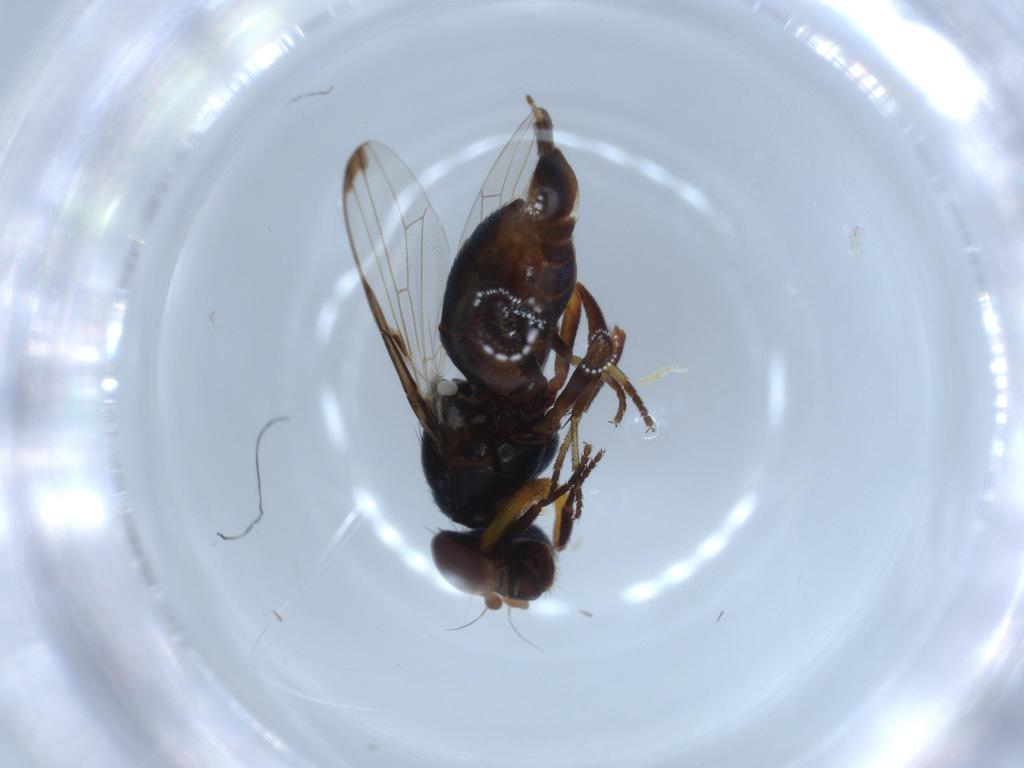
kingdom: Animalia
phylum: Arthropoda
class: Insecta
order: Diptera
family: Ulidiidae
